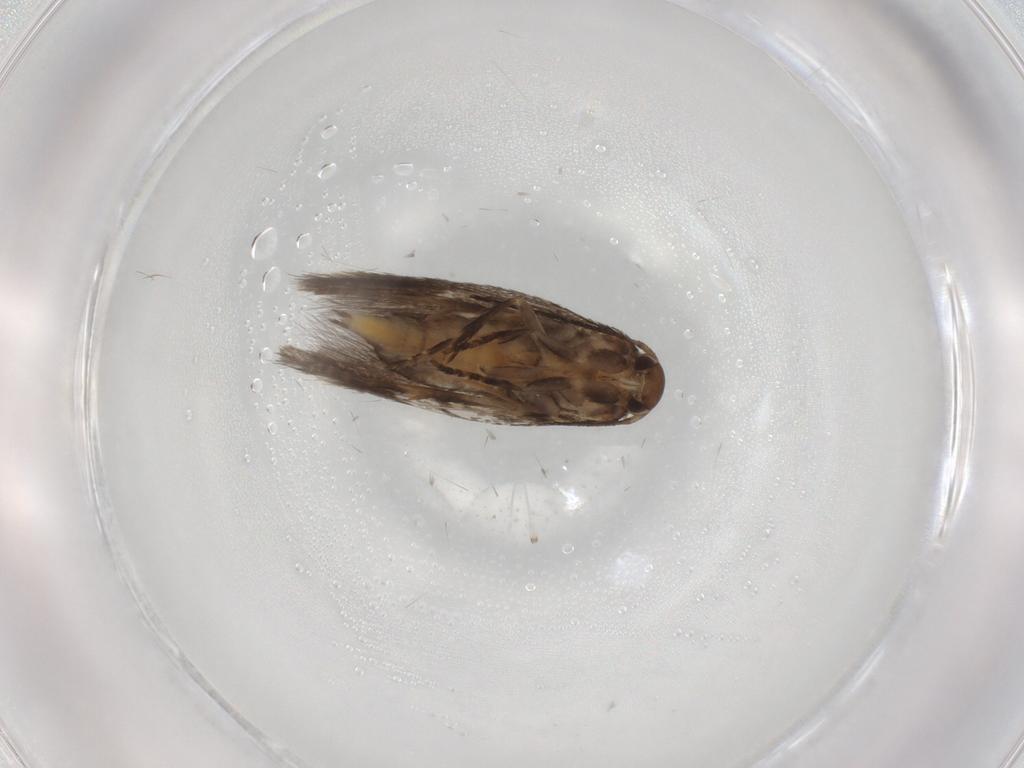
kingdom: Animalia
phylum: Arthropoda
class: Insecta
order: Lepidoptera
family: Elachistidae
